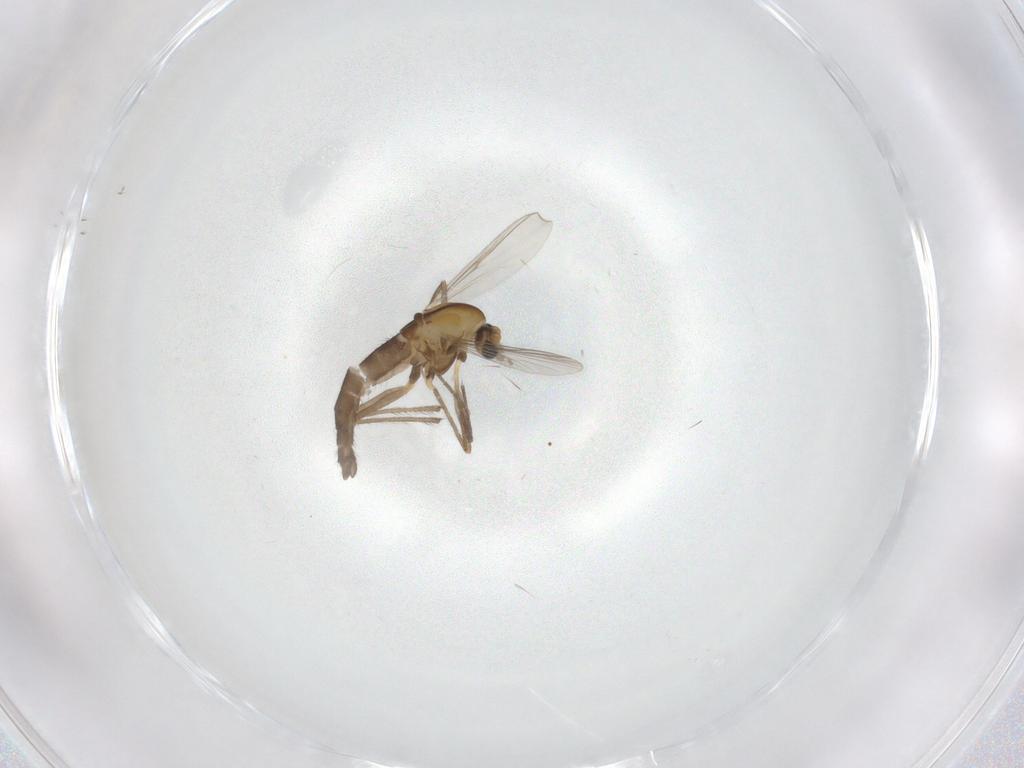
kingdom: Animalia
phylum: Arthropoda
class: Insecta
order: Diptera
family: Chironomidae
